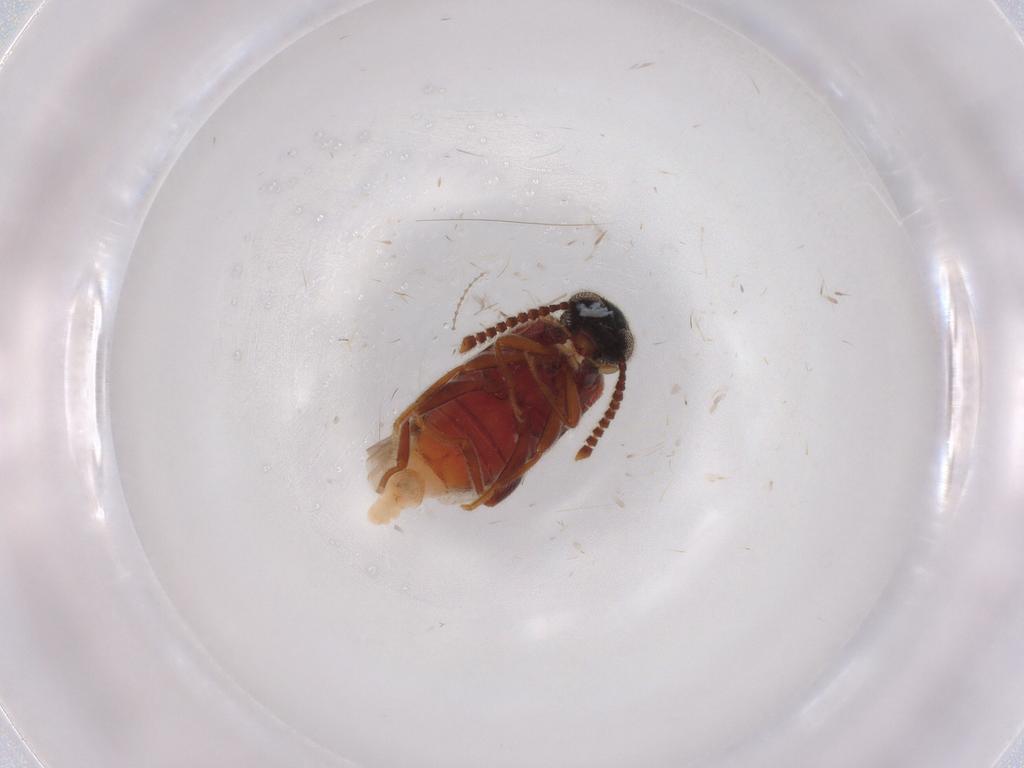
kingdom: Animalia
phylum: Arthropoda
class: Insecta
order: Coleoptera
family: Aderidae
